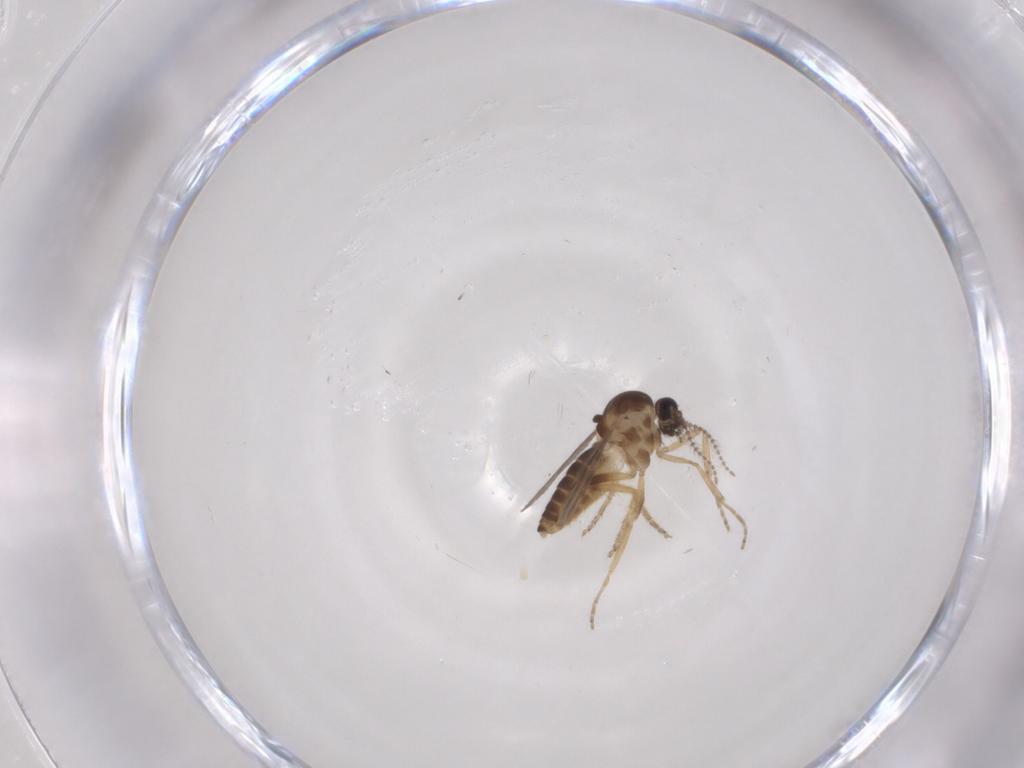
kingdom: Animalia
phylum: Arthropoda
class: Insecta
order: Diptera
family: Ceratopogonidae
